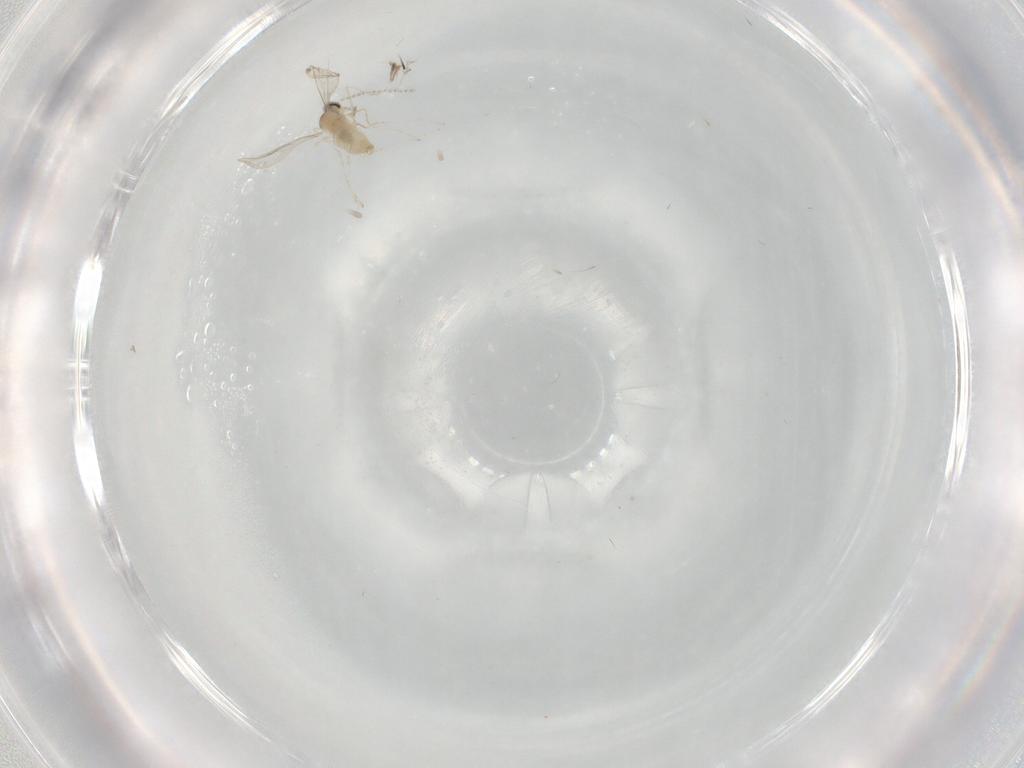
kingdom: Animalia
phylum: Arthropoda
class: Insecta
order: Diptera
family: Cecidomyiidae
